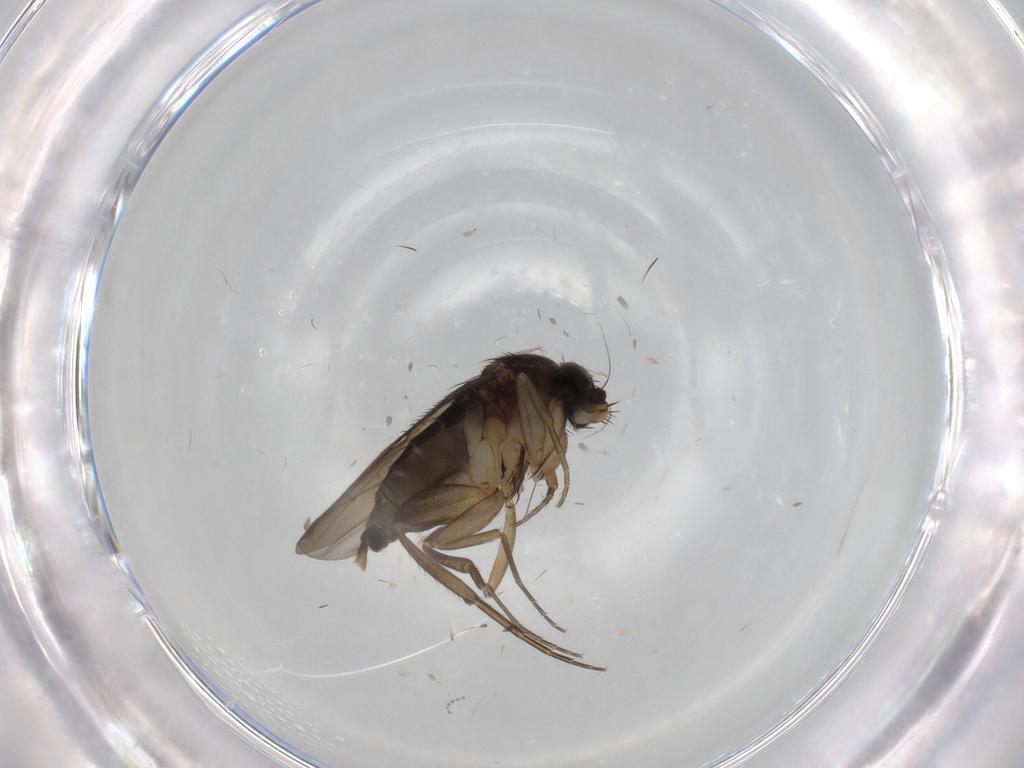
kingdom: Animalia
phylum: Arthropoda
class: Insecta
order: Diptera
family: Phoridae
